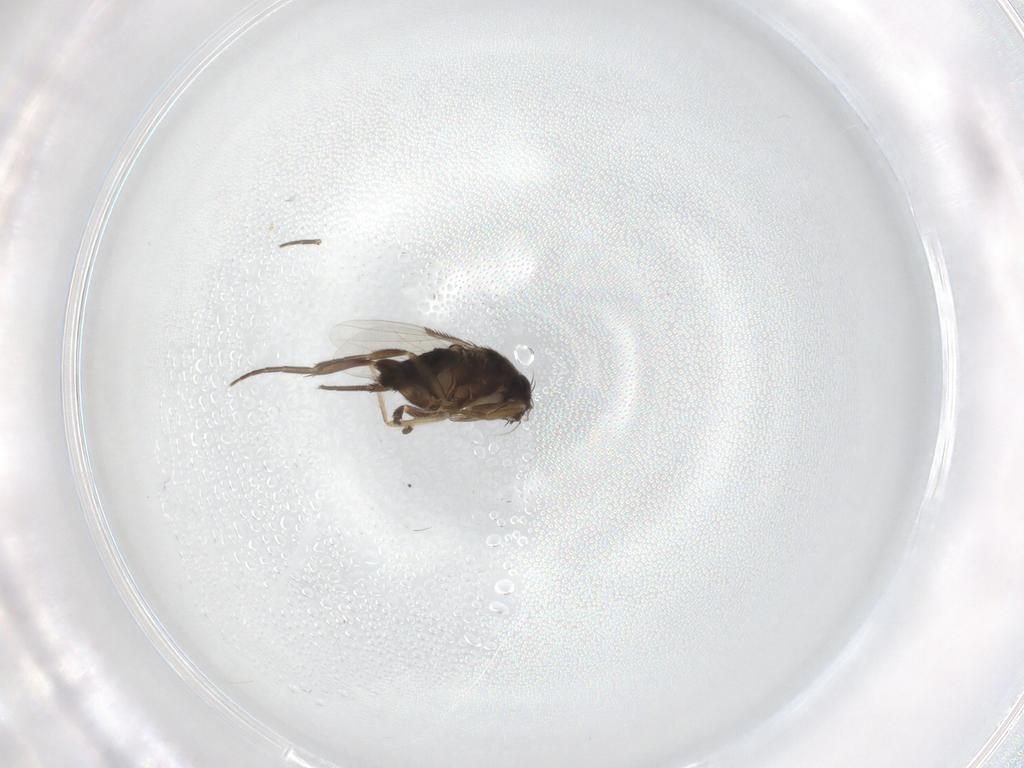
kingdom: Animalia
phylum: Arthropoda
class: Insecta
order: Diptera
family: Phoridae
